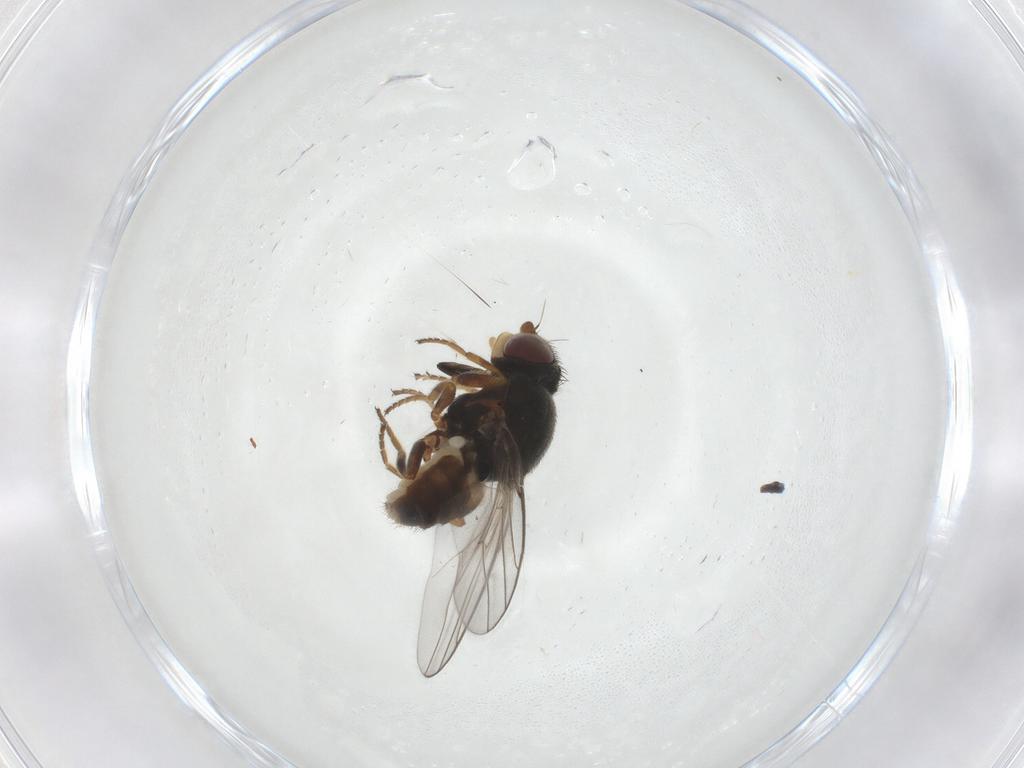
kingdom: Animalia
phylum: Arthropoda
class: Insecta
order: Diptera
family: Chloropidae
